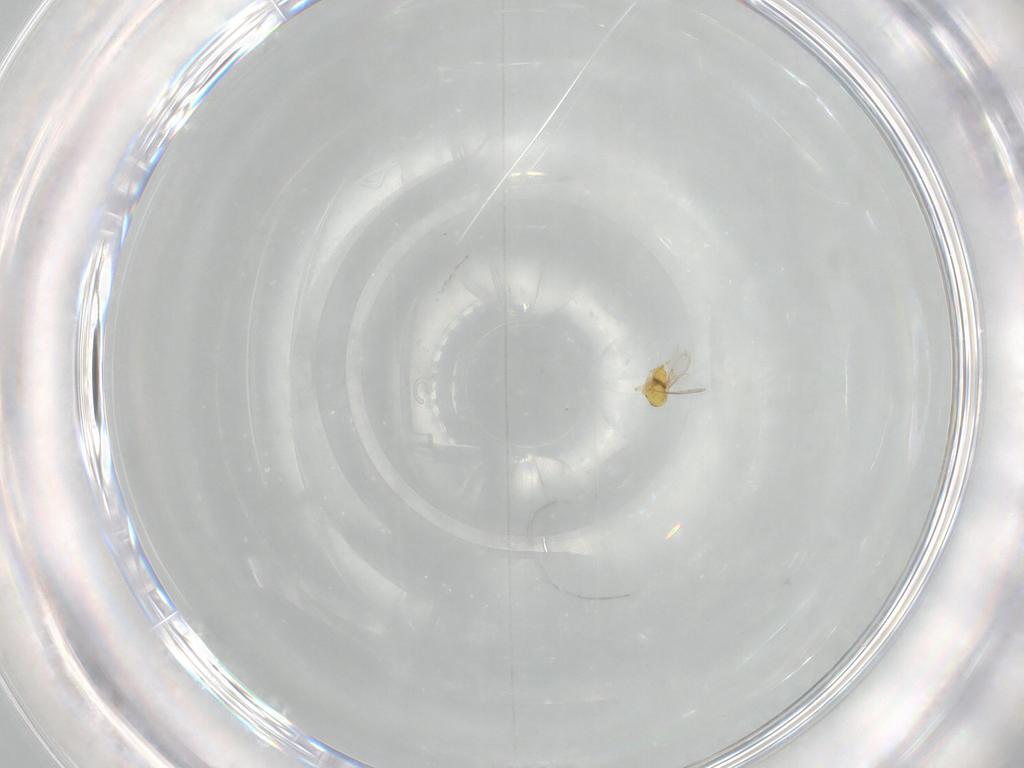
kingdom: Animalia
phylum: Arthropoda
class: Insecta
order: Hymenoptera
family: Aphelinidae
